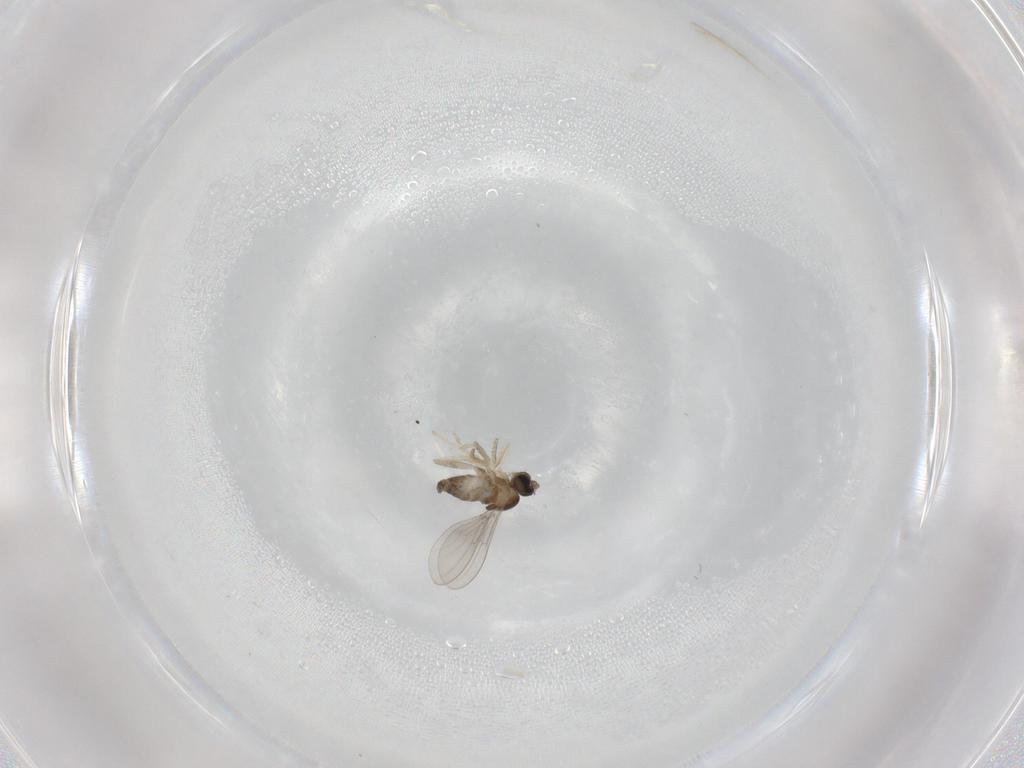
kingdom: Animalia
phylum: Arthropoda
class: Insecta
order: Diptera
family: Cecidomyiidae
